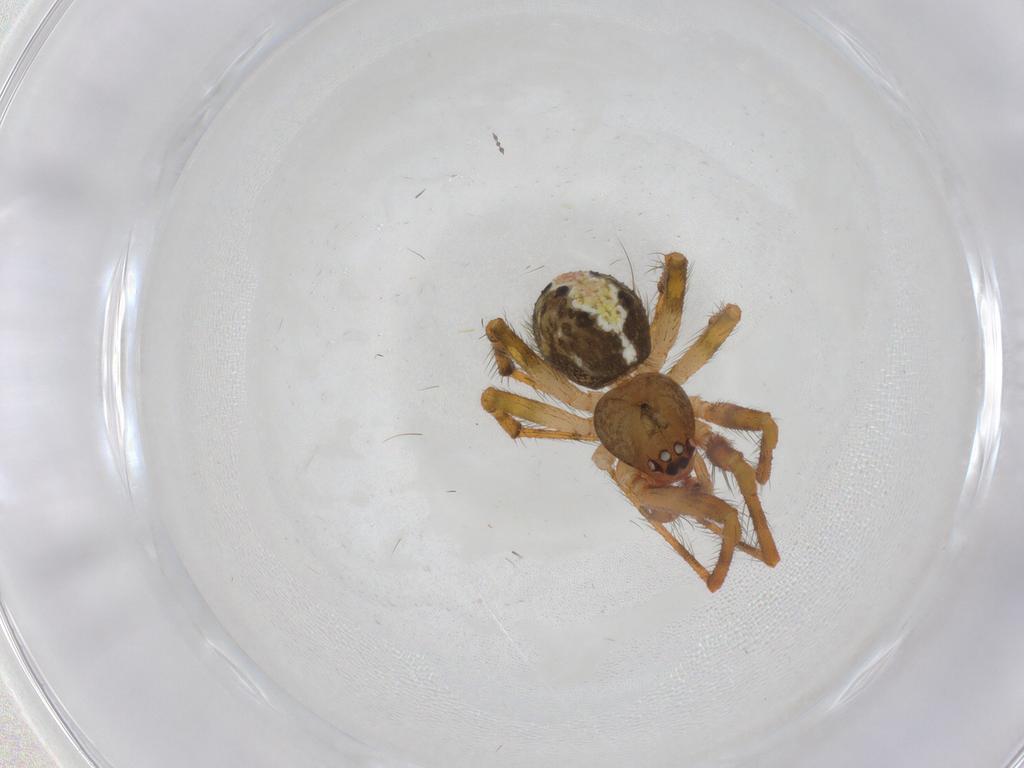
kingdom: Animalia
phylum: Arthropoda
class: Arachnida
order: Araneae
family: Theridiidae
